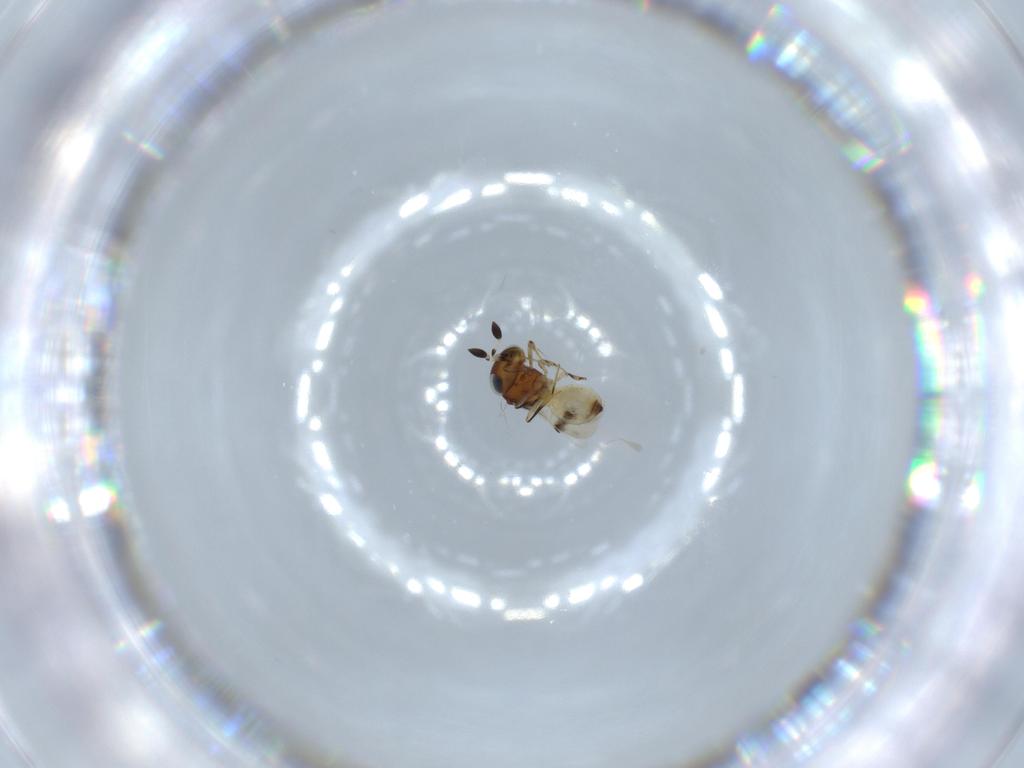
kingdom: Animalia
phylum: Arthropoda
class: Arachnida
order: Araneae
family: Pholcidae
